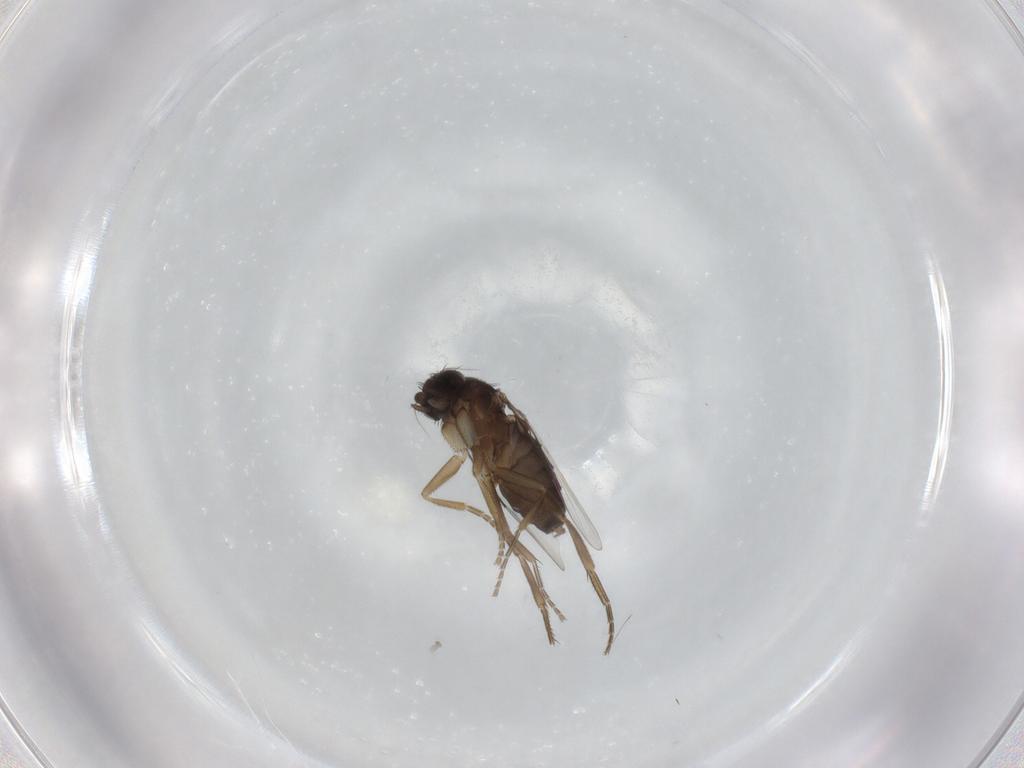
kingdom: Animalia
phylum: Arthropoda
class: Insecta
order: Diptera
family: Phoridae
